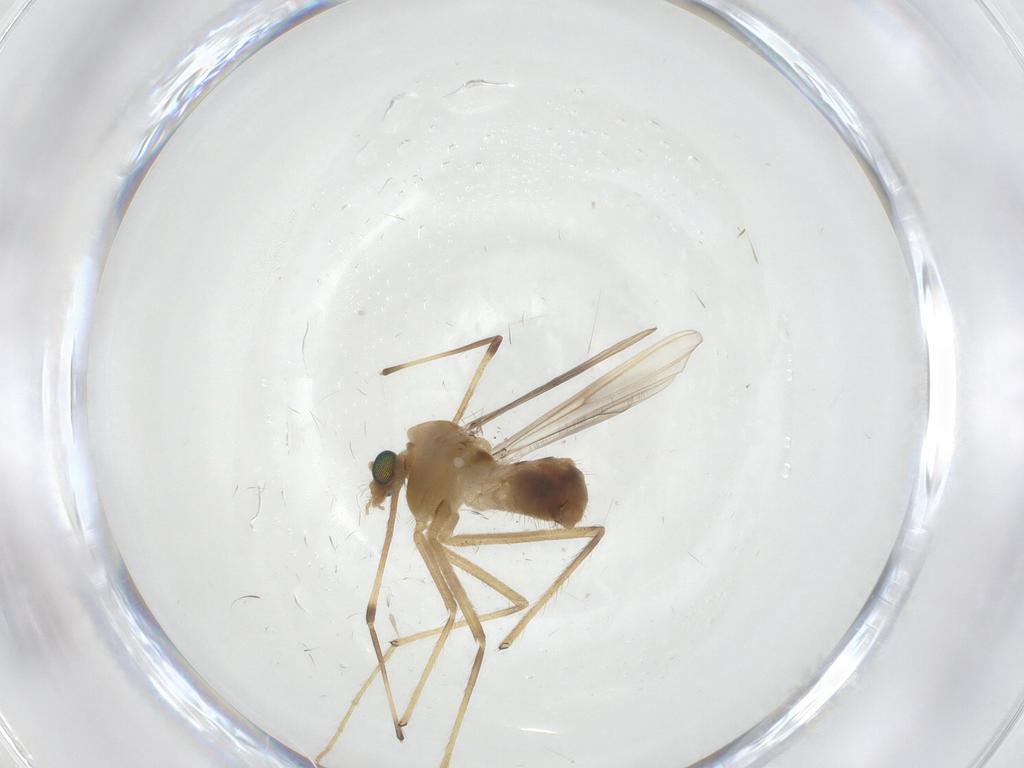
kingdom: Animalia
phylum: Arthropoda
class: Insecta
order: Diptera
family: Chironomidae
